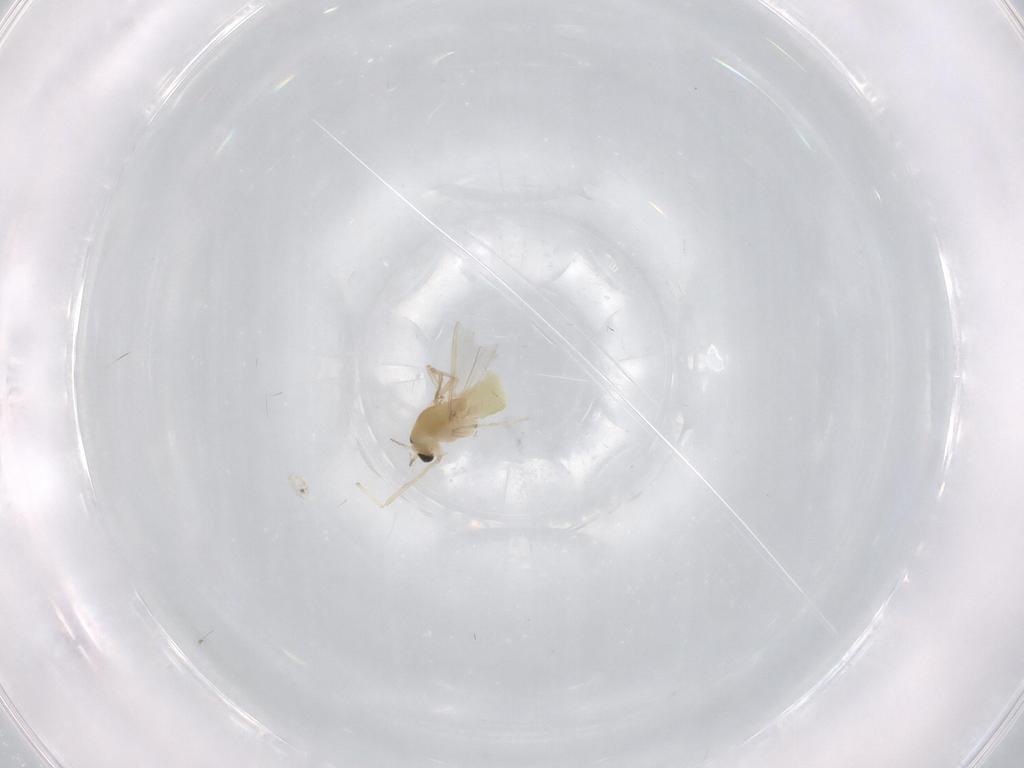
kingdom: Animalia
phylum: Arthropoda
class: Insecta
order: Diptera
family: Chironomidae
